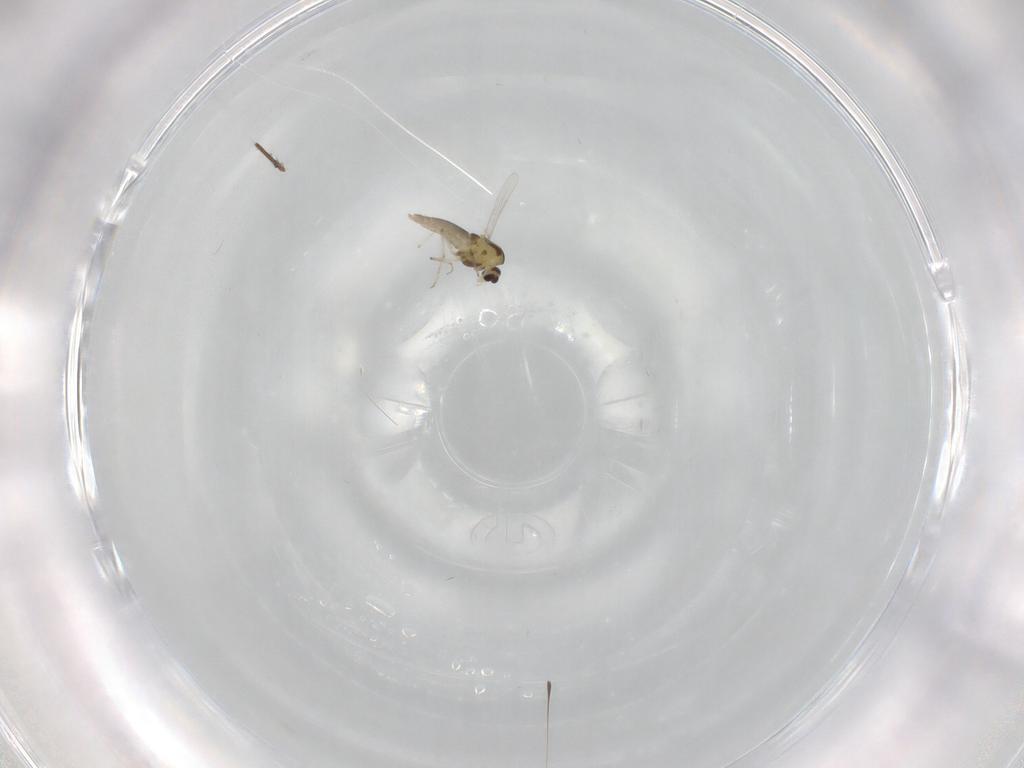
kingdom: Animalia
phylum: Arthropoda
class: Insecta
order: Diptera
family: Chironomidae
